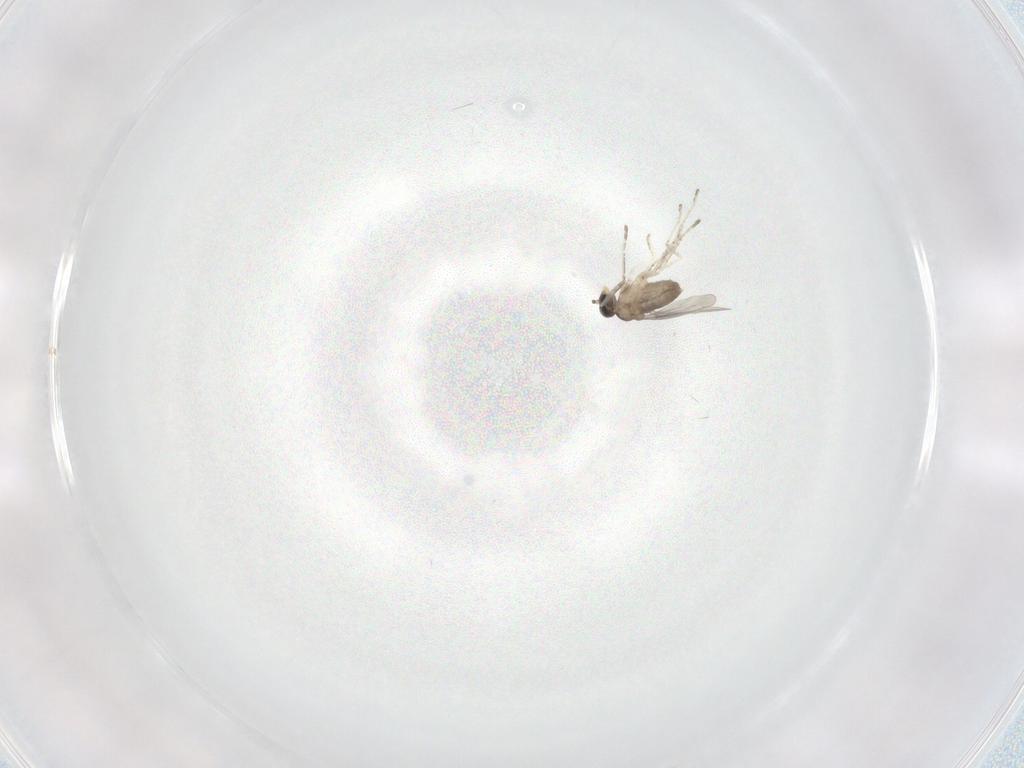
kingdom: Animalia
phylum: Arthropoda
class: Insecta
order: Diptera
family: Cecidomyiidae
